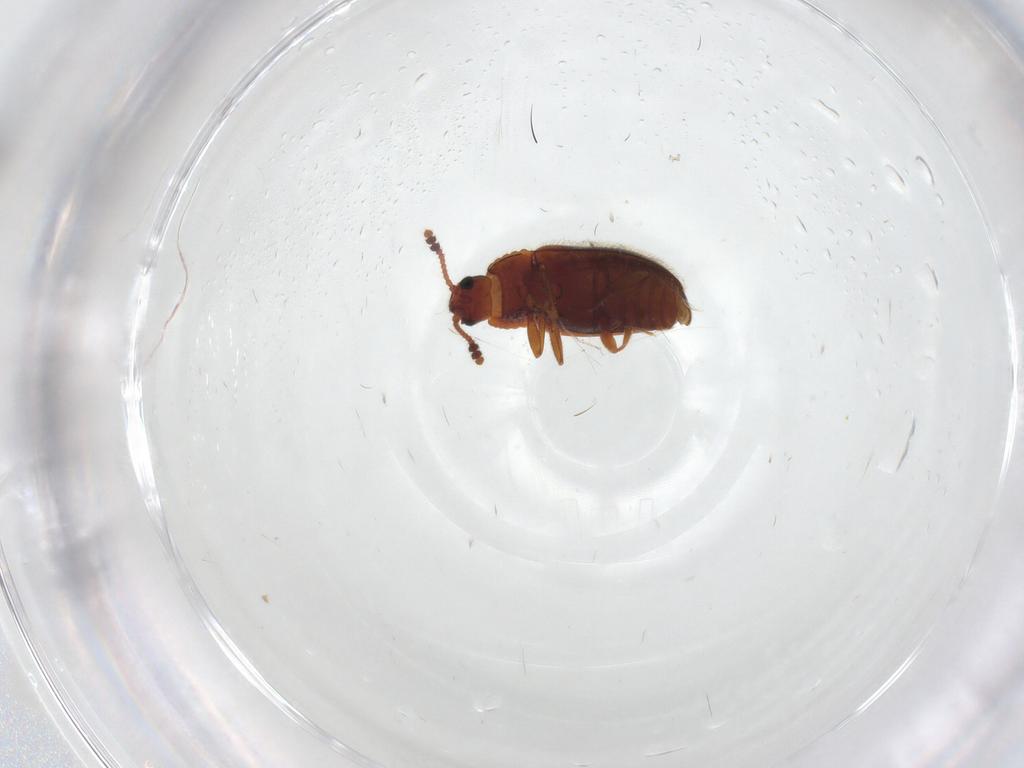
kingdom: Animalia
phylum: Arthropoda
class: Insecta
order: Coleoptera
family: Erotylidae
